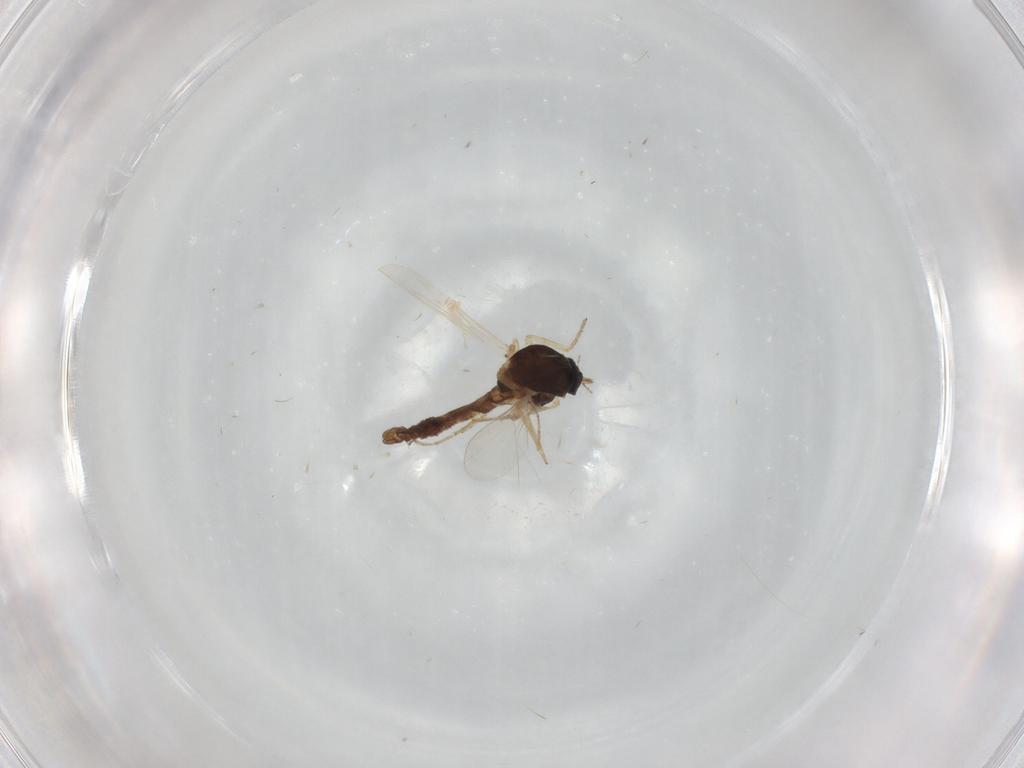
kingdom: Animalia
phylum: Arthropoda
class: Insecta
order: Diptera
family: Ceratopogonidae
